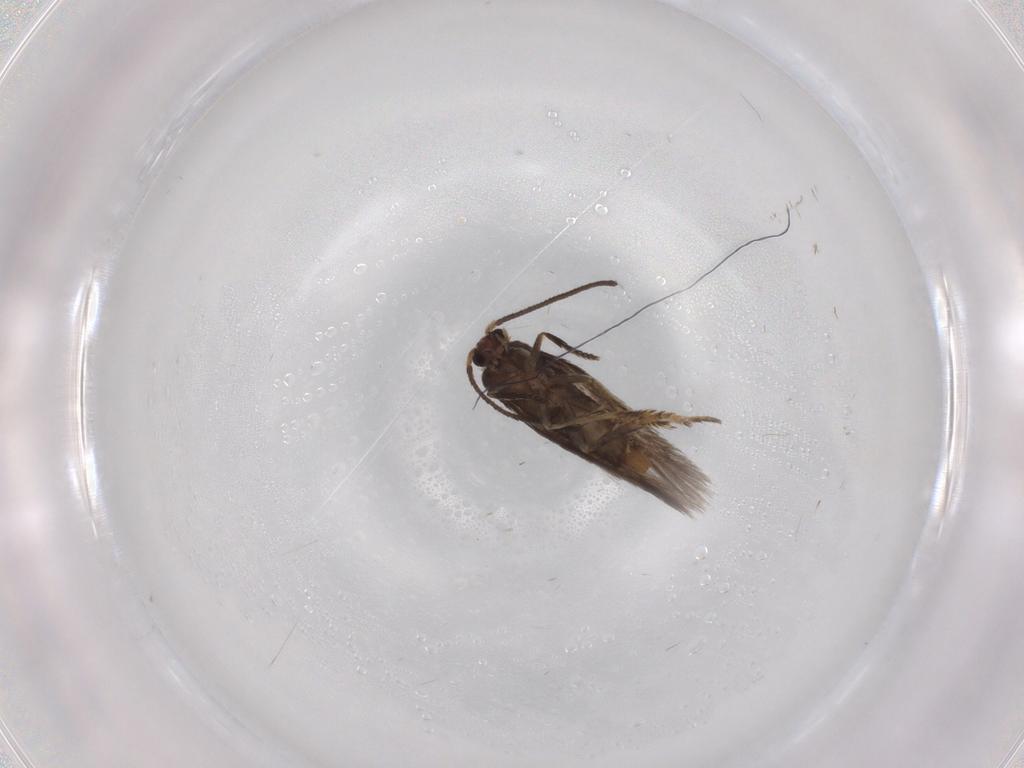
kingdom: Animalia
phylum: Arthropoda
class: Insecta
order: Lepidoptera
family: Nepticulidae
